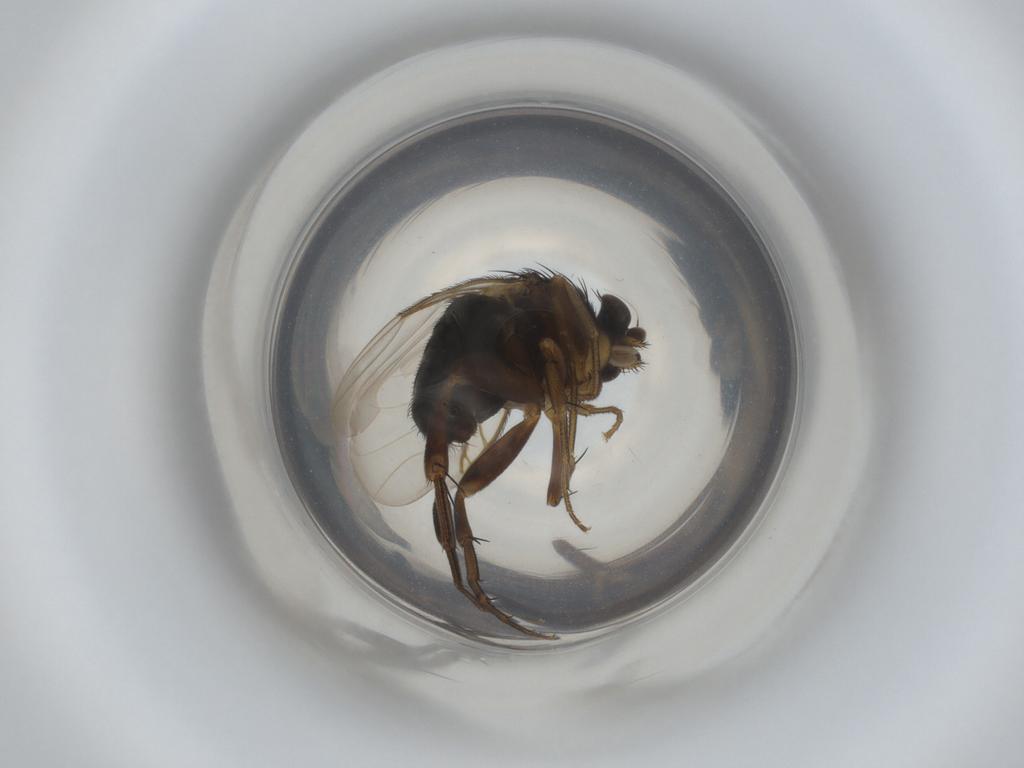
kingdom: Animalia
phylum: Arthropoda
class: Insecta
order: Diptera
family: Phoridae
